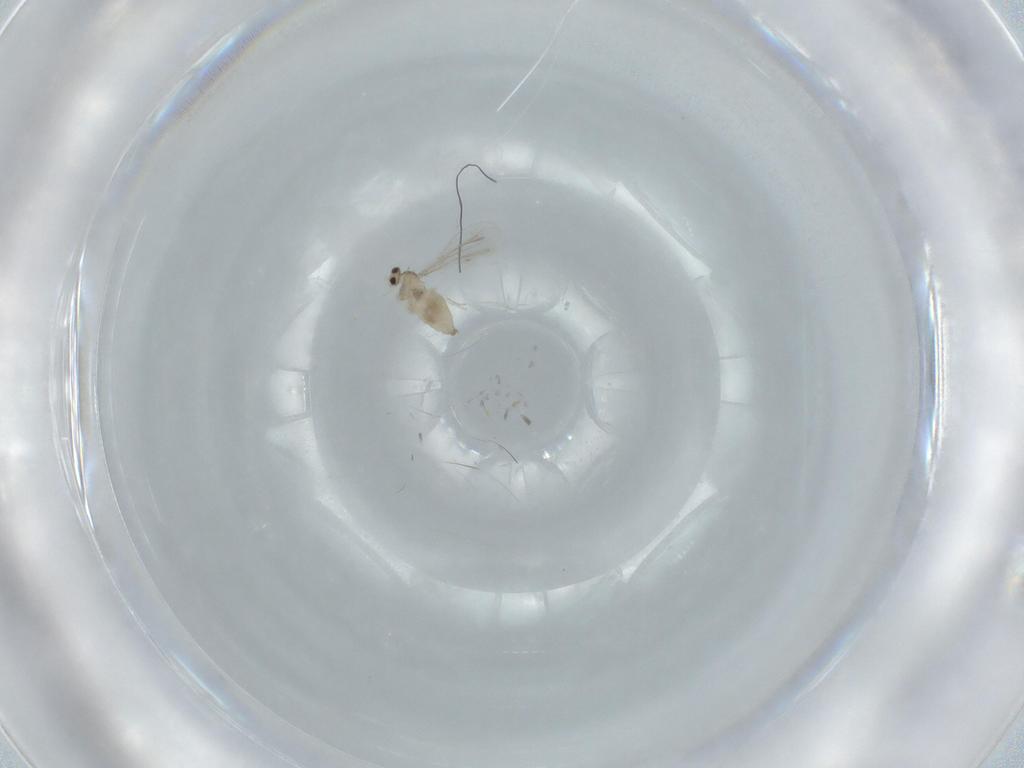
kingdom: Animalia
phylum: Arthropoda
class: Insecta
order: Diptera
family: Cecidomyiidae
